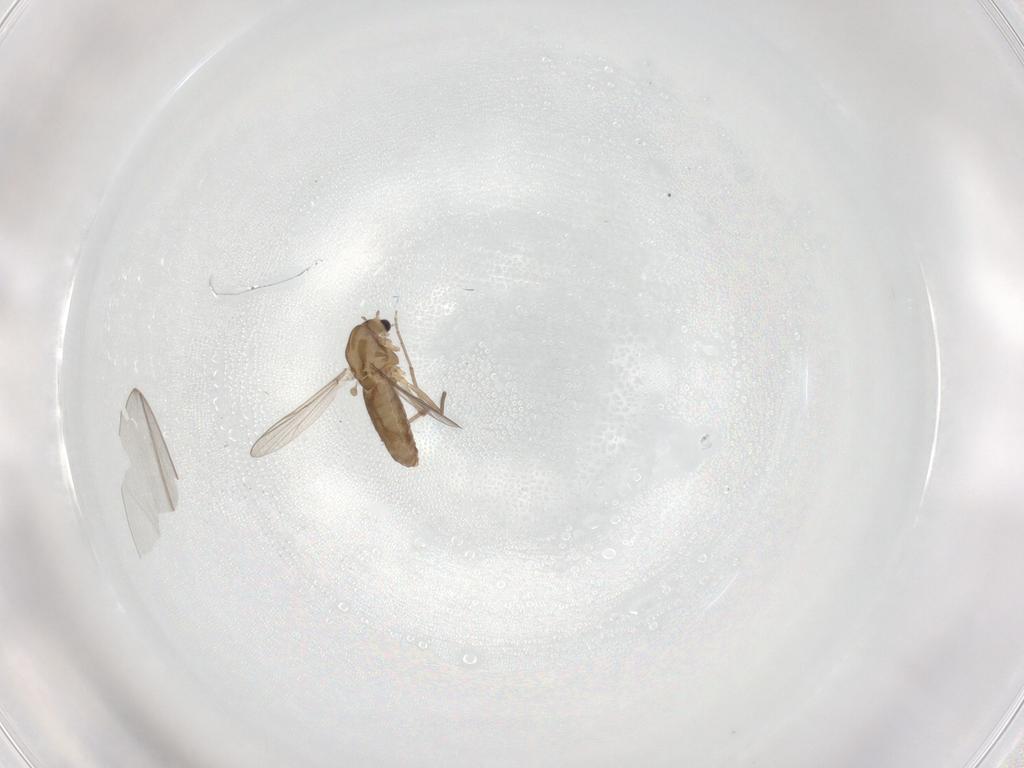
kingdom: Animalia
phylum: Arthropoda
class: Insecta
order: Diptera
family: Chironomidae
